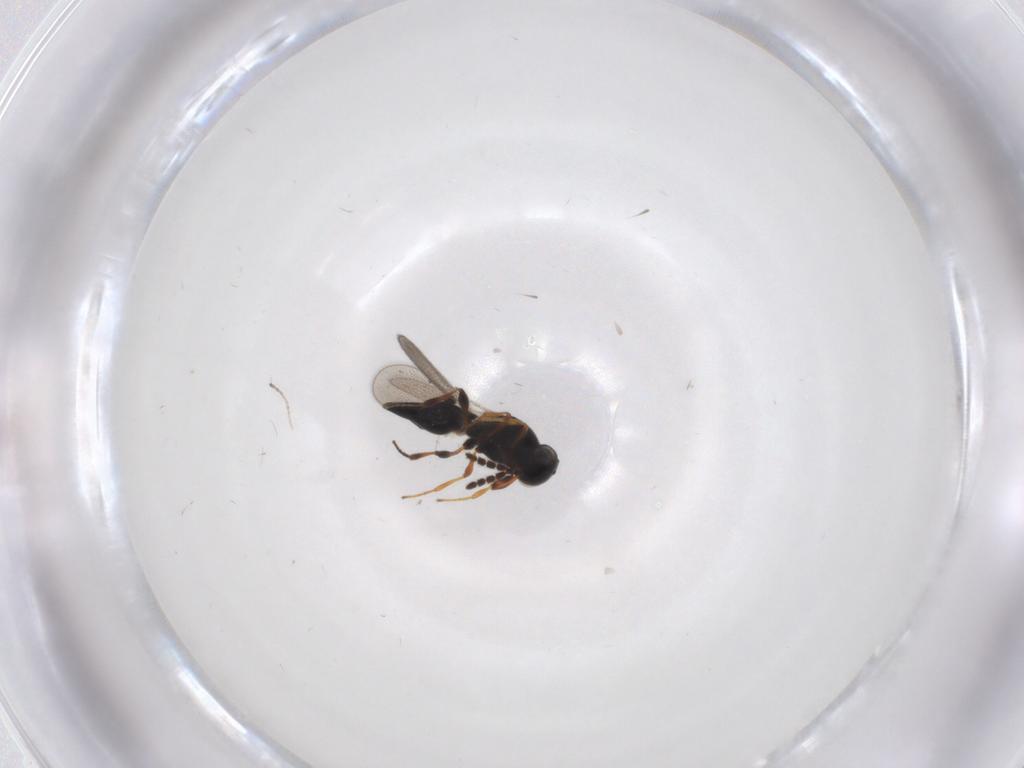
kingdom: Animalia
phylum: Arthropoda
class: Insecta
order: Hymenoptera
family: Platygastridae
